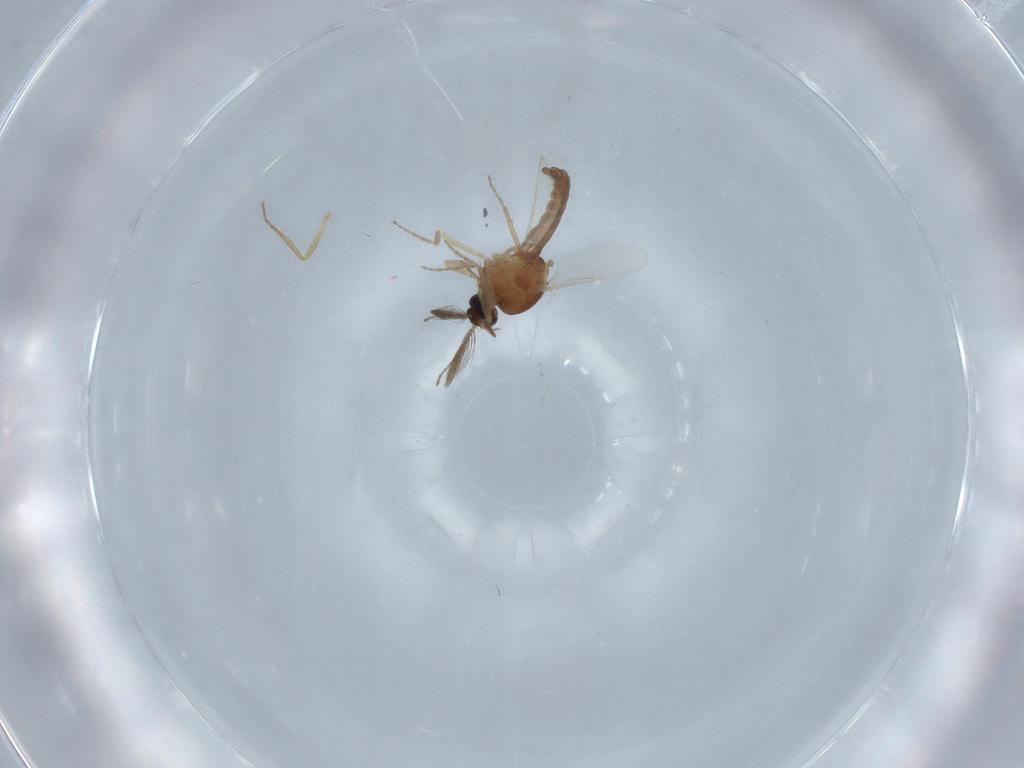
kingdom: Animalia
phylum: Arthropoda
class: Insecta
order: Diptera
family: Ceratopogonidae
